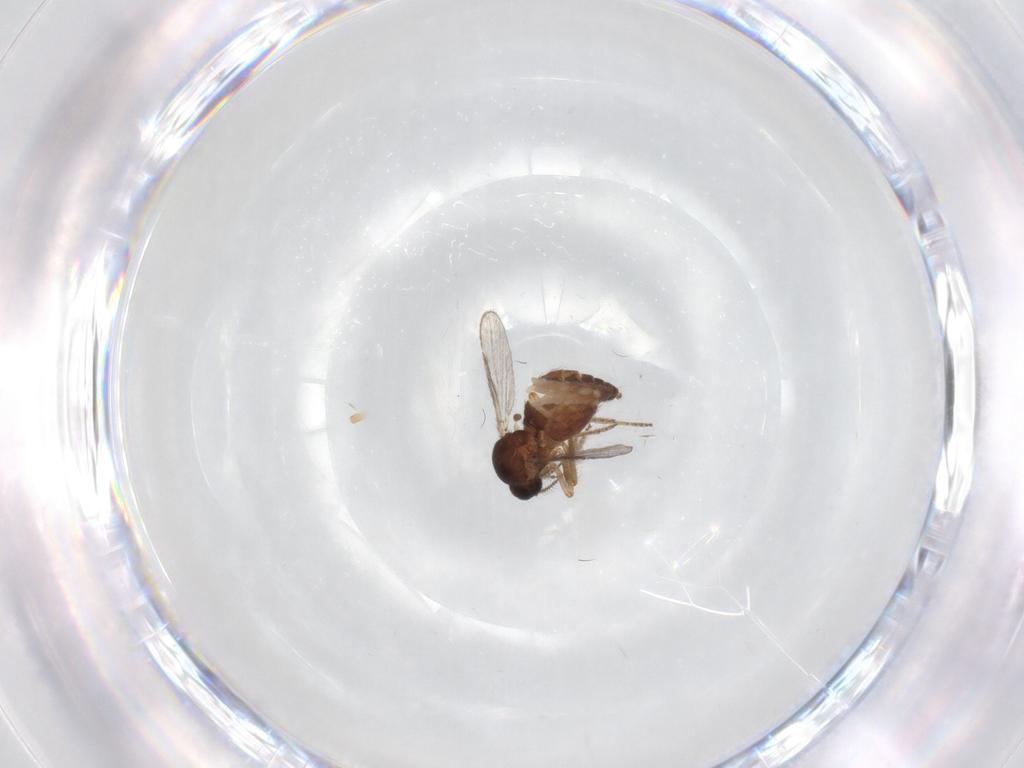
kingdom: Animalia
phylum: Arthropoda
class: Insecta
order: Diptera
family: Ceratopogonidae
